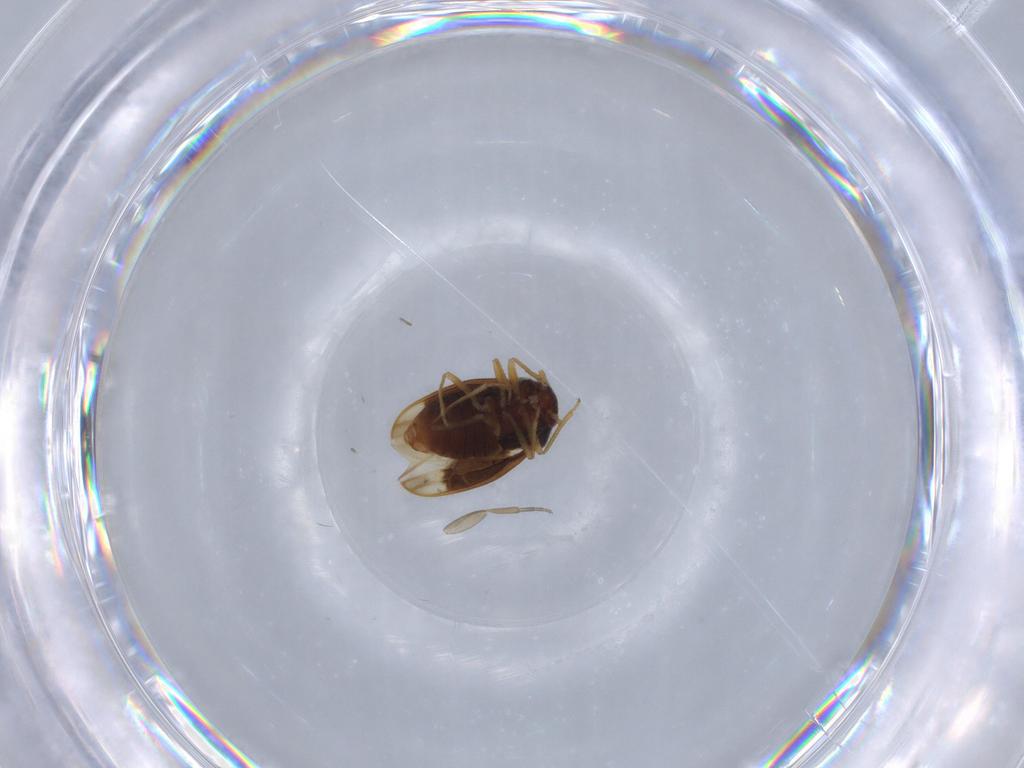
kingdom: Animalia
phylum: Arthropoda
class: Insecta
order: Hemiptera
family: Schizopteridae
